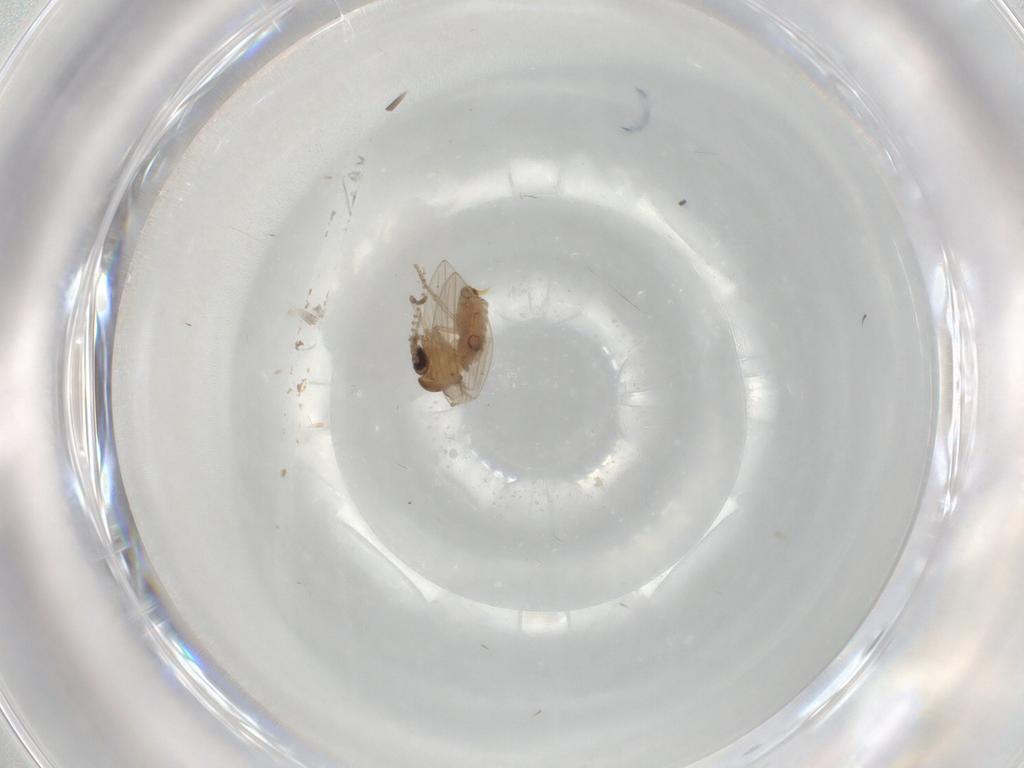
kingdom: Animalia
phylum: Arthropoda
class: Insecta
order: Diptera
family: Psychodidae
